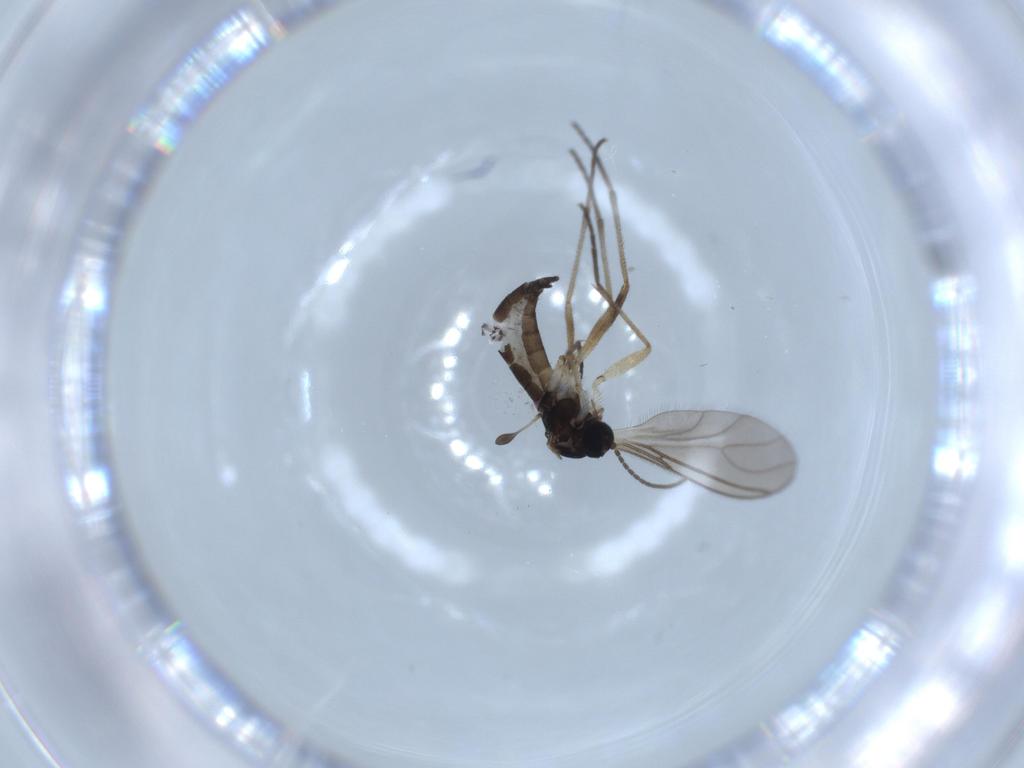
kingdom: Animalia
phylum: Arthropoda
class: Insecta
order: Diptera
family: Sciaridae
